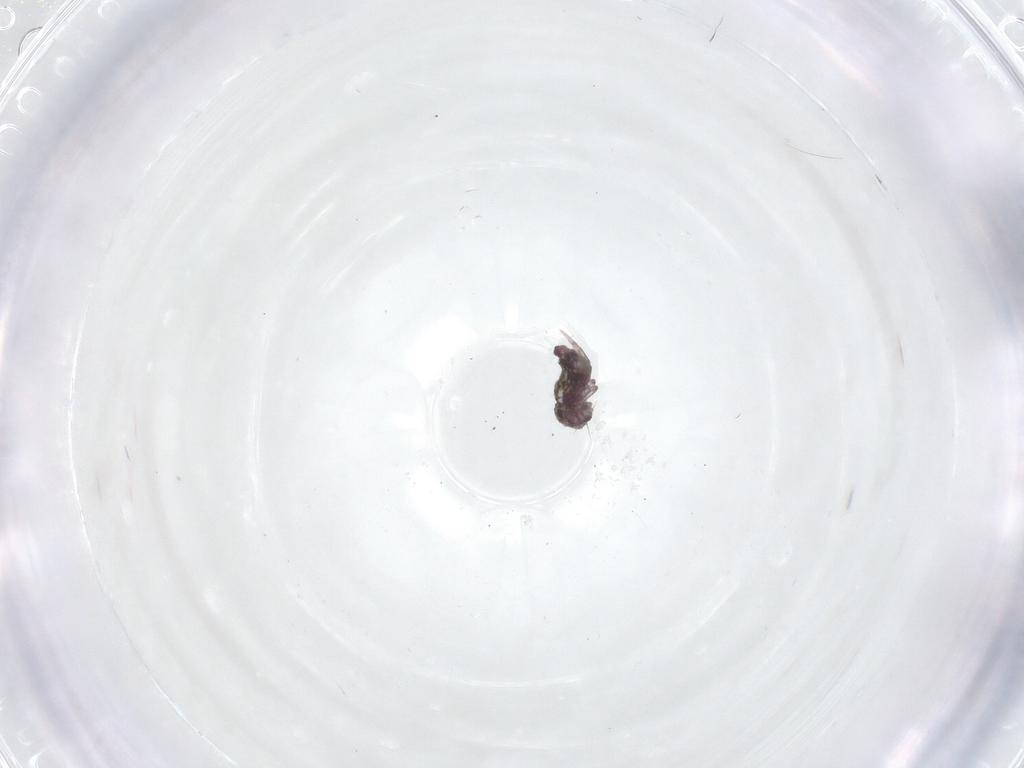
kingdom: Animalia
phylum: Arthropoda
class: Collembola
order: Symphypleona
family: Bourletiellidae
